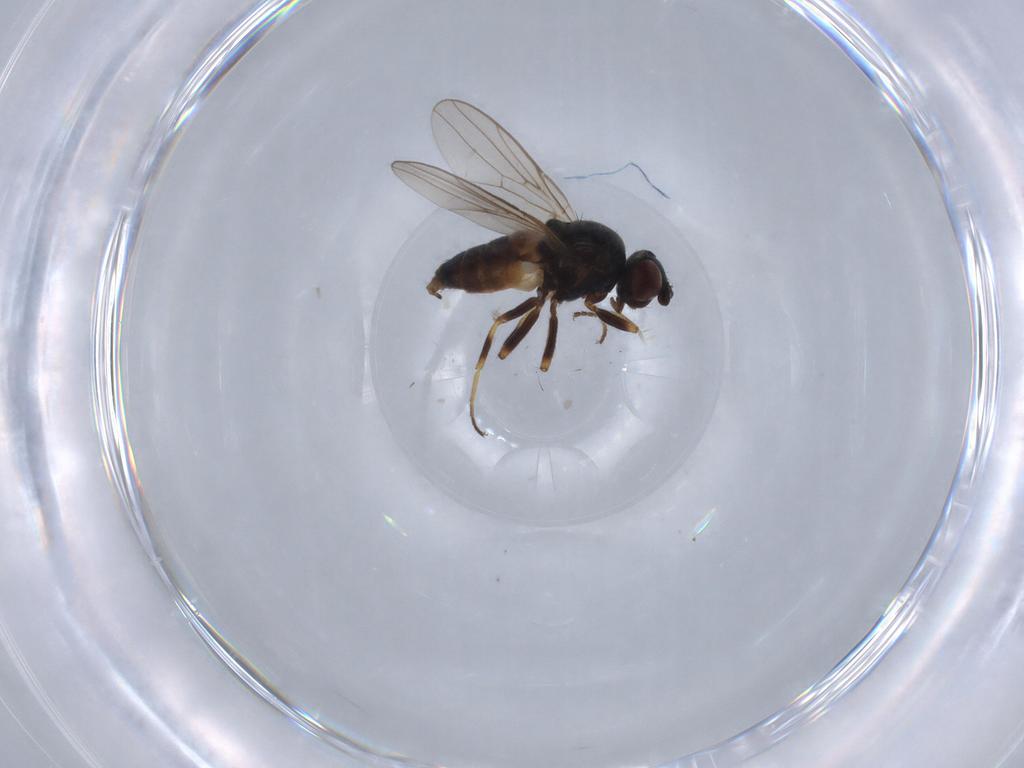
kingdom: Animalia
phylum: Arthropoda
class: Insecta
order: Diptera
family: Chloropidae
